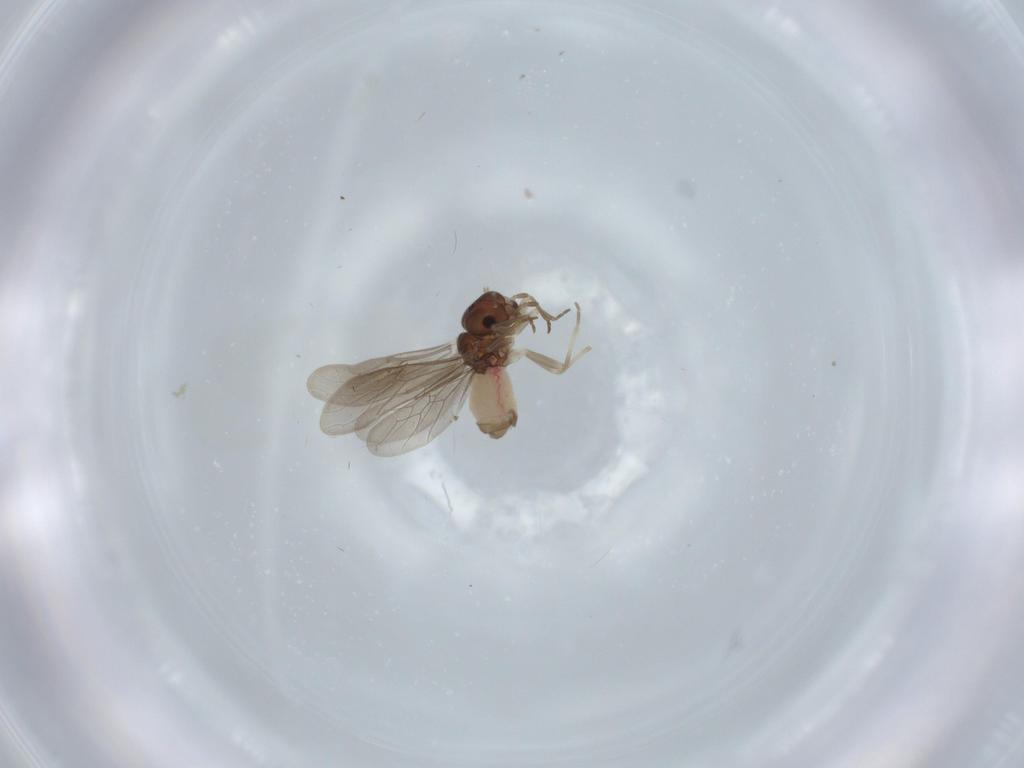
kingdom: Animalia
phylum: Arthropoda
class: Insecta
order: Psocodea
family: Asiopsocidae
